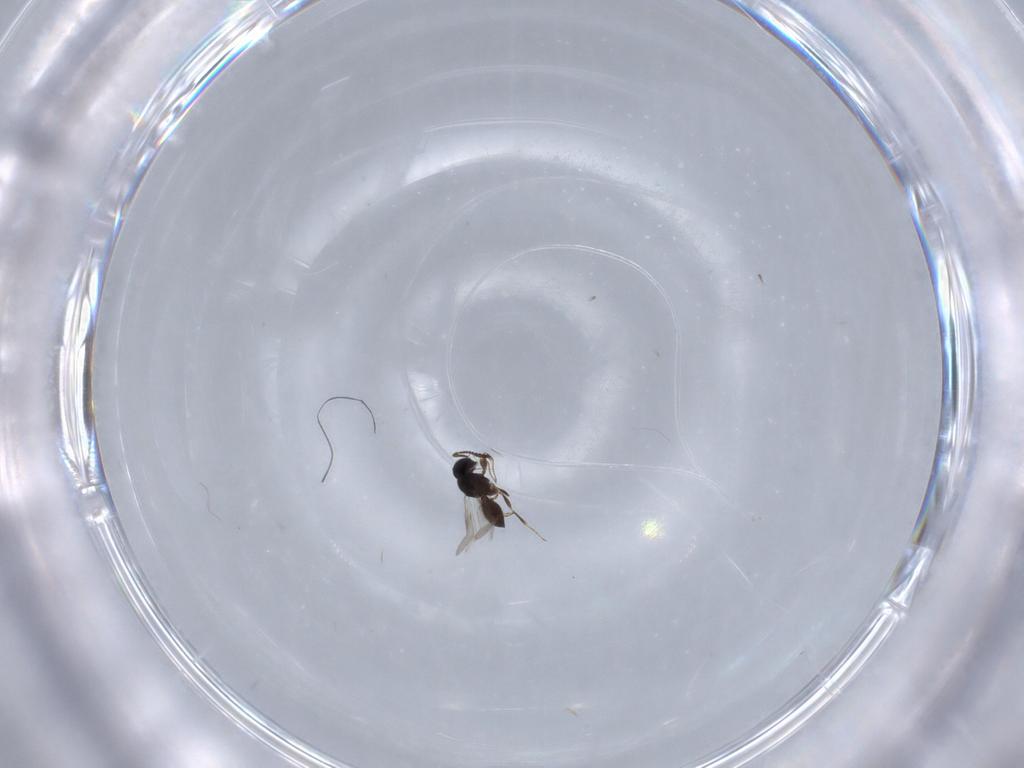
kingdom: Animalia
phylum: Arthropoda
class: Insecta
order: Hymenoptera
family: Scelionidae
